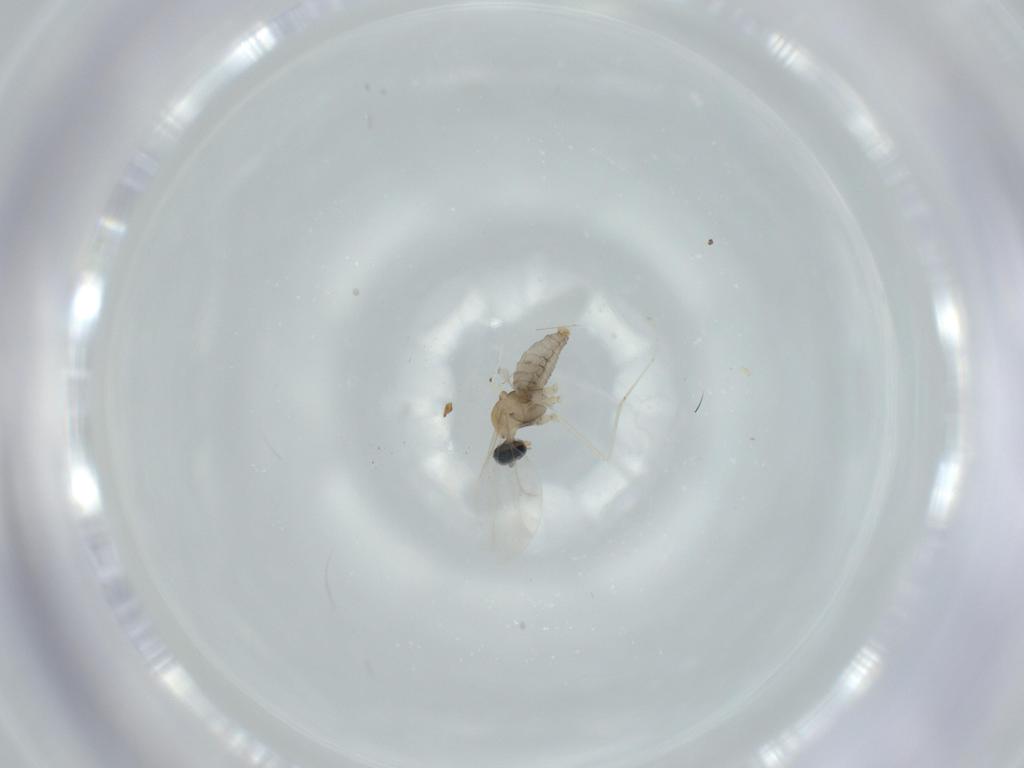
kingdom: Animalia
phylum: Arthropoda
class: Insecta
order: Diptera
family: Cecidomyiidae
